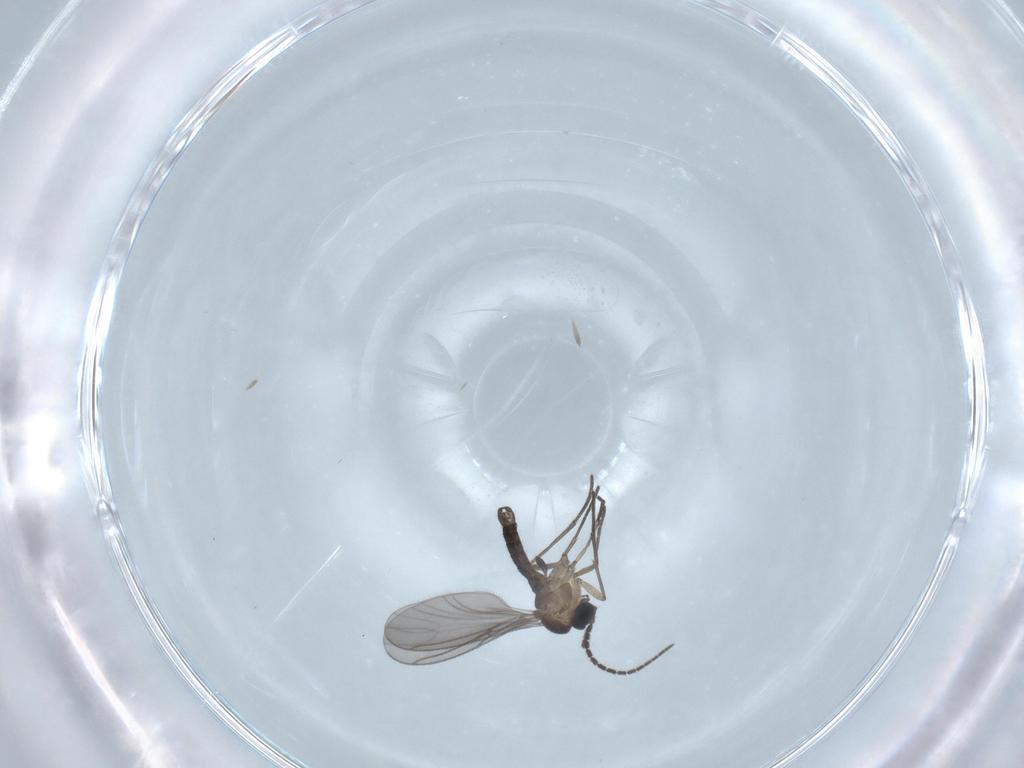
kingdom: Animalia
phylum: Arthropoda
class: Insecta
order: Diptera
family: Sciaridae
